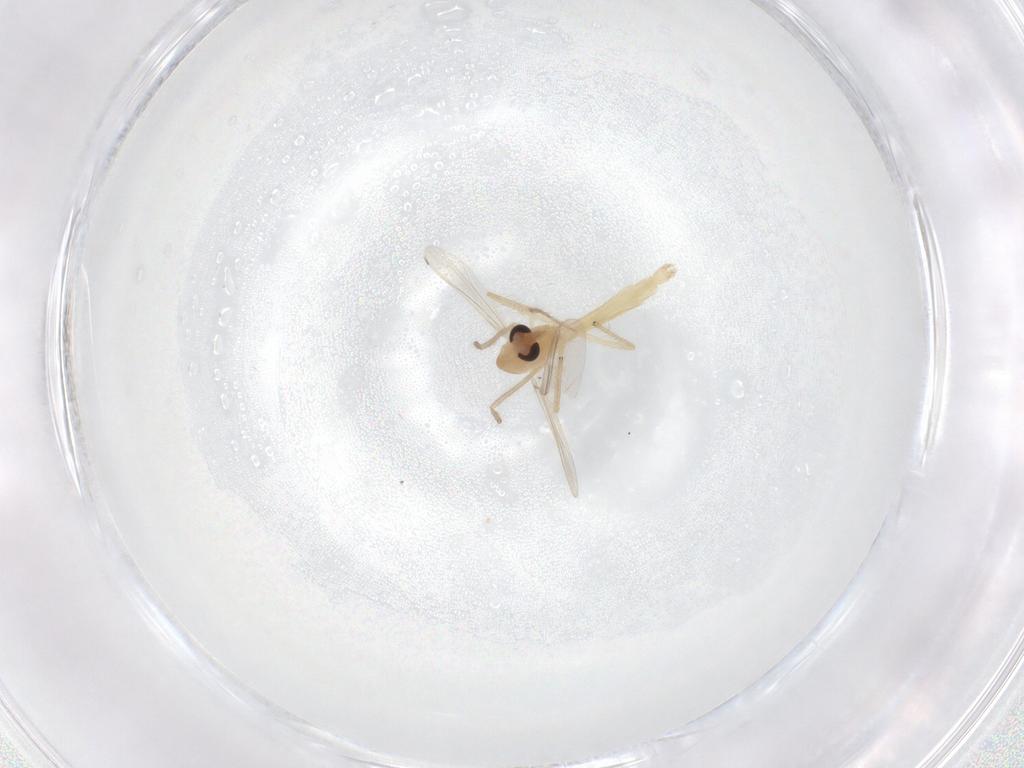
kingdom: Animalia
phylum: Arthropoda
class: Insecta
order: Diptera
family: Chironomidae
